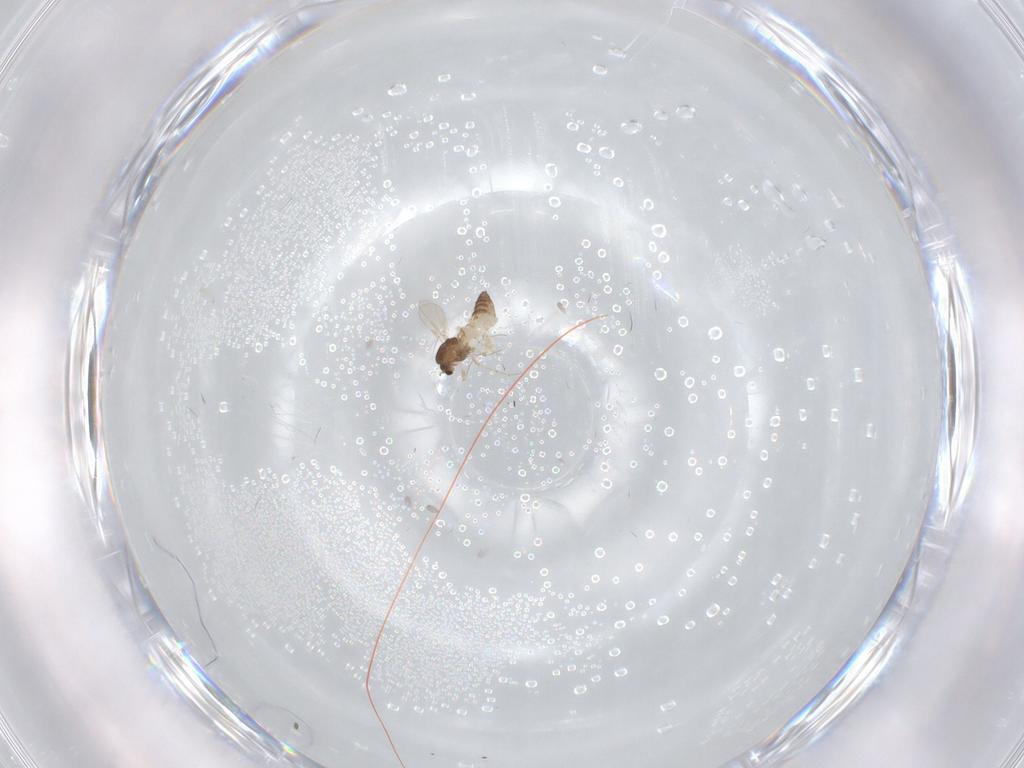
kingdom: Animalia
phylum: Arthropoda
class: Insecta
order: Diptera
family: Chironomidae
